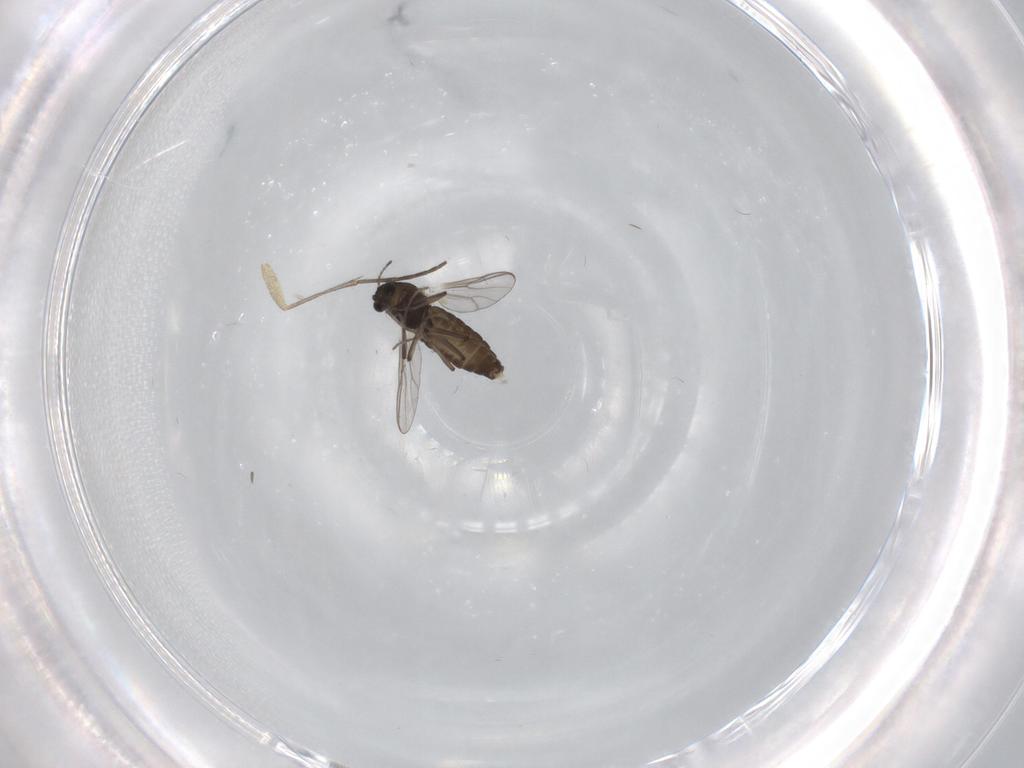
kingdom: Animalia
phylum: Arthropoda
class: Insecta
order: Diptera
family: Chironomidae
